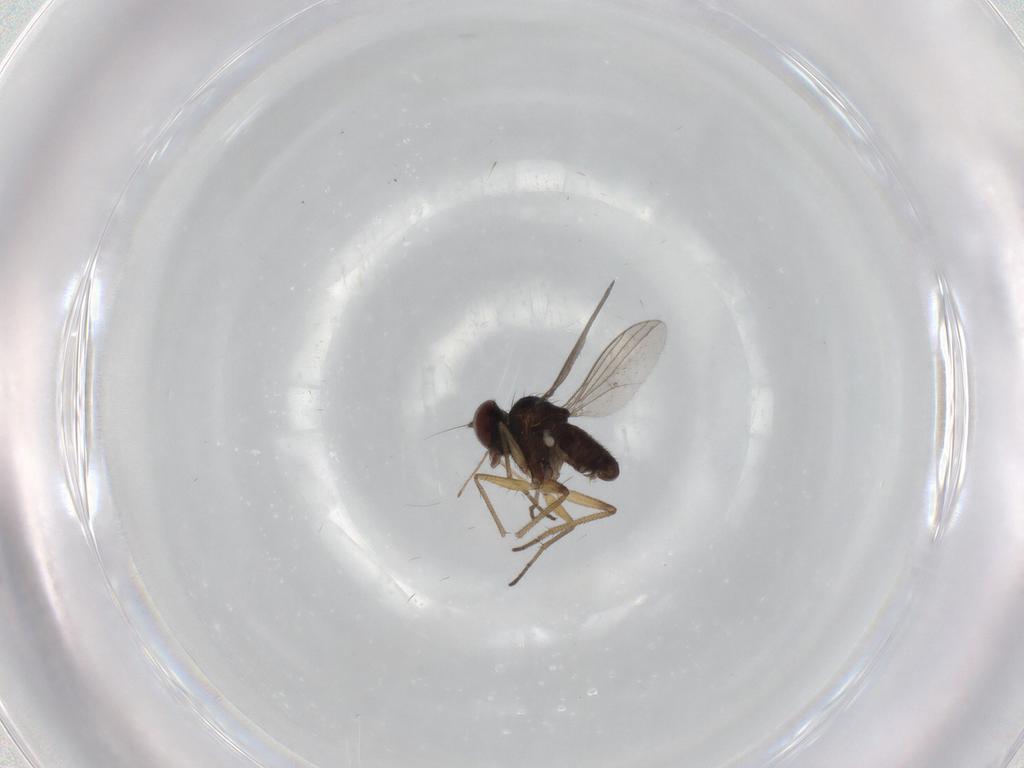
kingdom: Animalia
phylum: Arthropoda
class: Insecta
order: Diptera
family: Dolichopodidae
